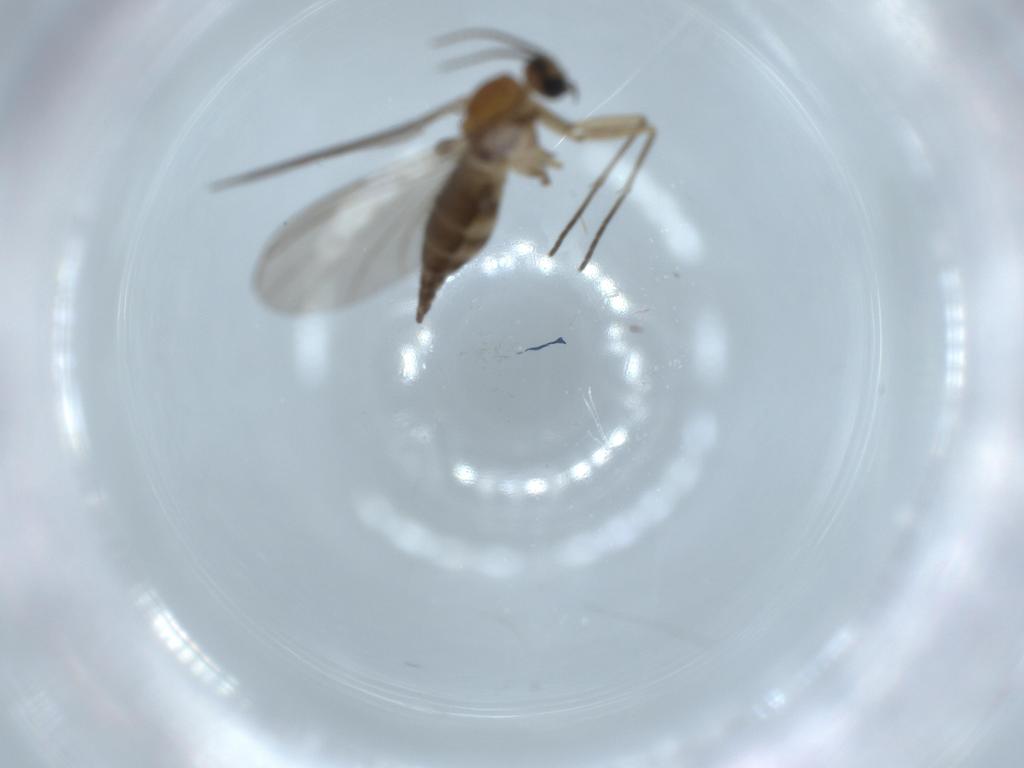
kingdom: Animalia
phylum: Arthropoda
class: Insecta
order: Diptera
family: Sciaridae
